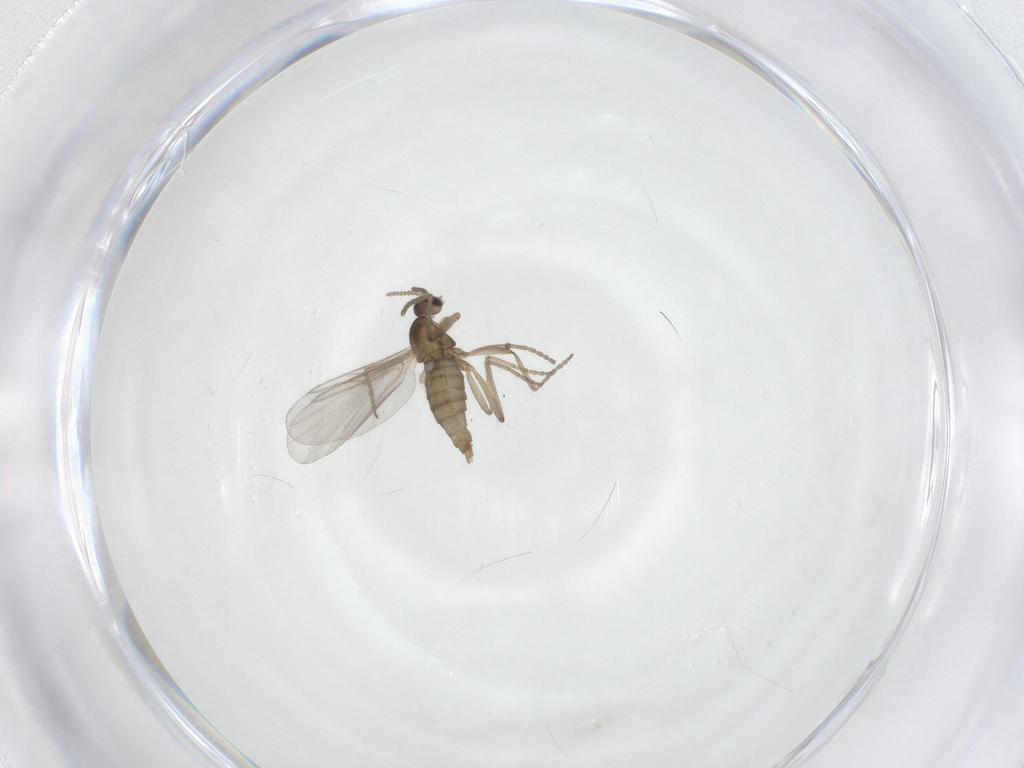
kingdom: Animalia
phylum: Arthropoda
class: Insecta
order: Diptera
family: Cecidomyiidae
